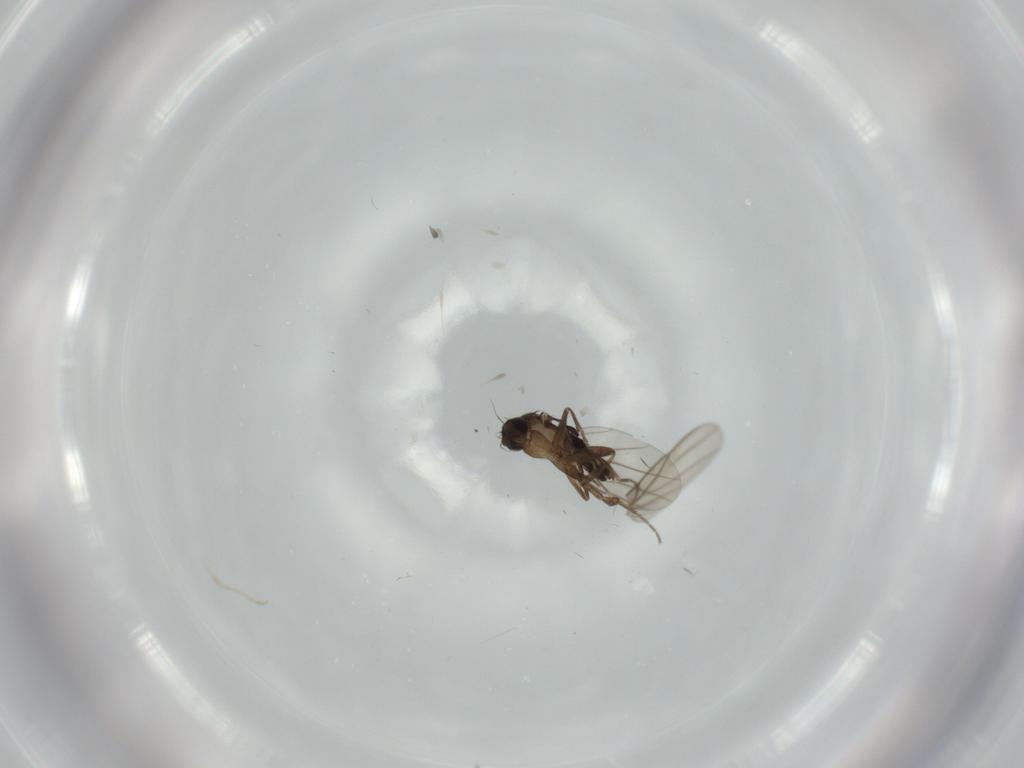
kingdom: Animalia
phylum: Arthropoda
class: Insecta
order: Diptera
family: Phoridae
